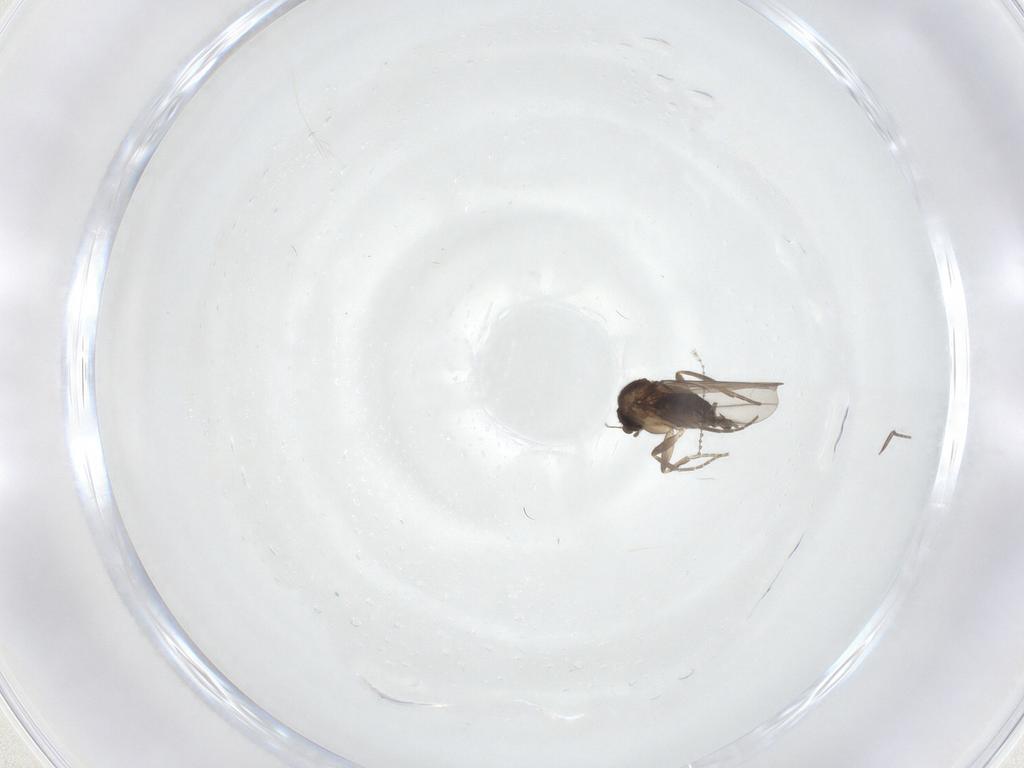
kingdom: Animalia
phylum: Arthropoda
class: Insecta
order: Diptera
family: Cecidomyiidae
